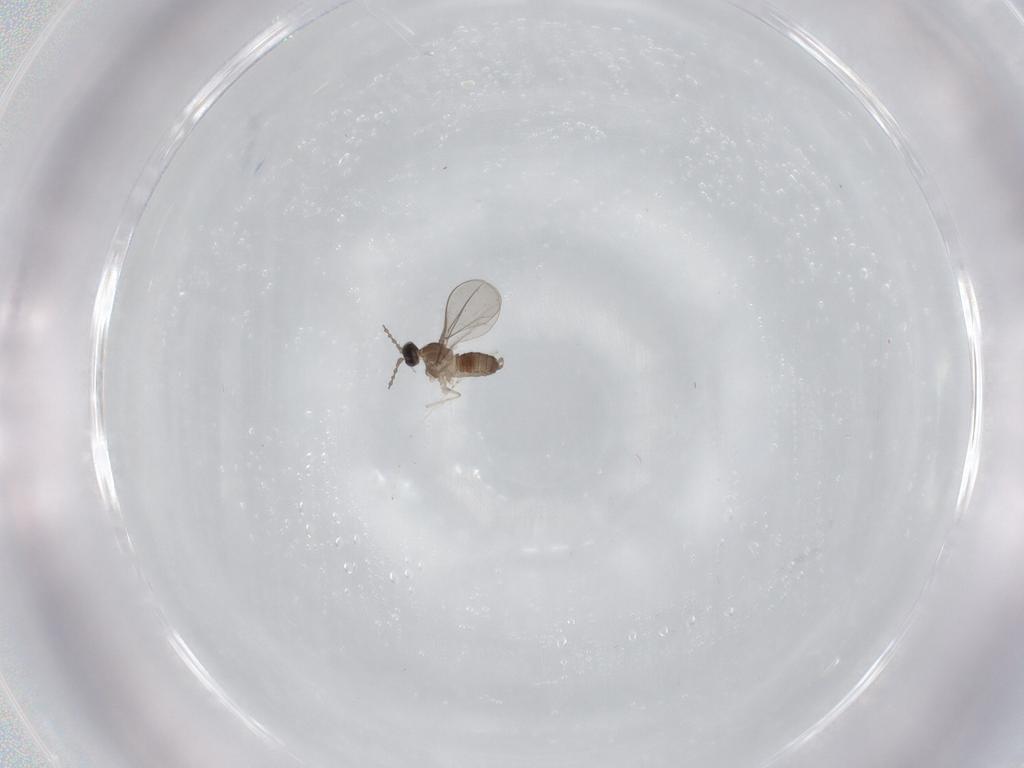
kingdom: Animalia
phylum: Arthropoda
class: Insecta
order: Diptera
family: Cecidomyiidae
